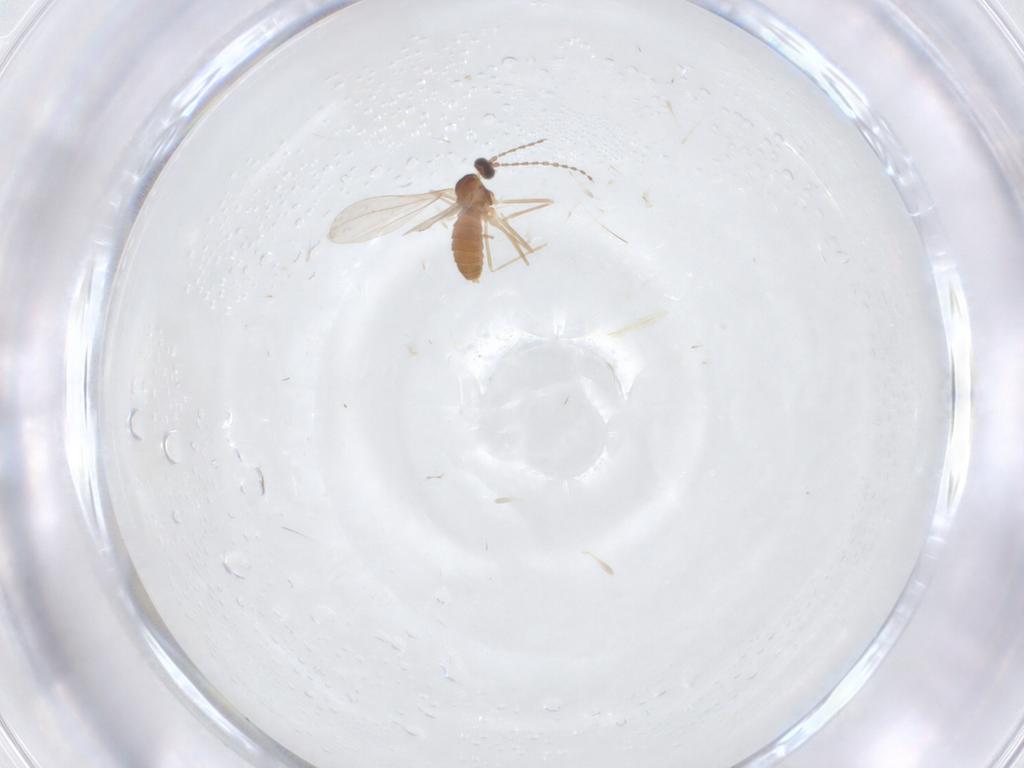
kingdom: Animalia
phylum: Arthropoda
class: Insecta
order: Diptera
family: Cecidomyiidae
